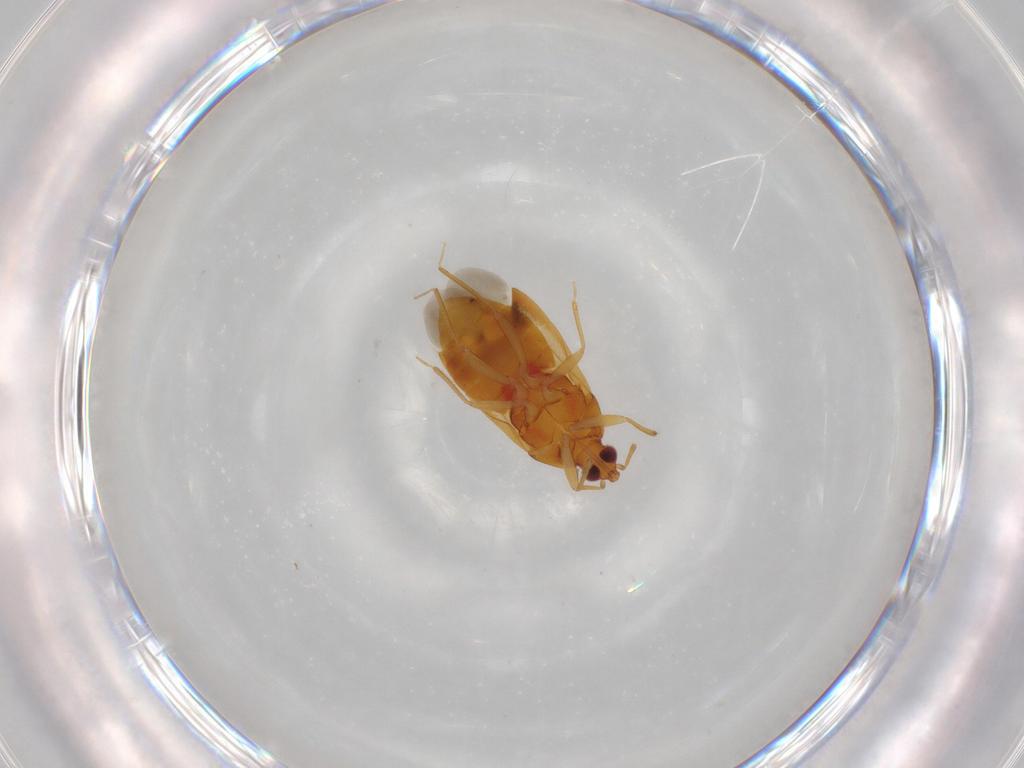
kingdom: Animalia
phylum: Arthropoda
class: Insecta
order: Hemiptera
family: Anthocoridae
